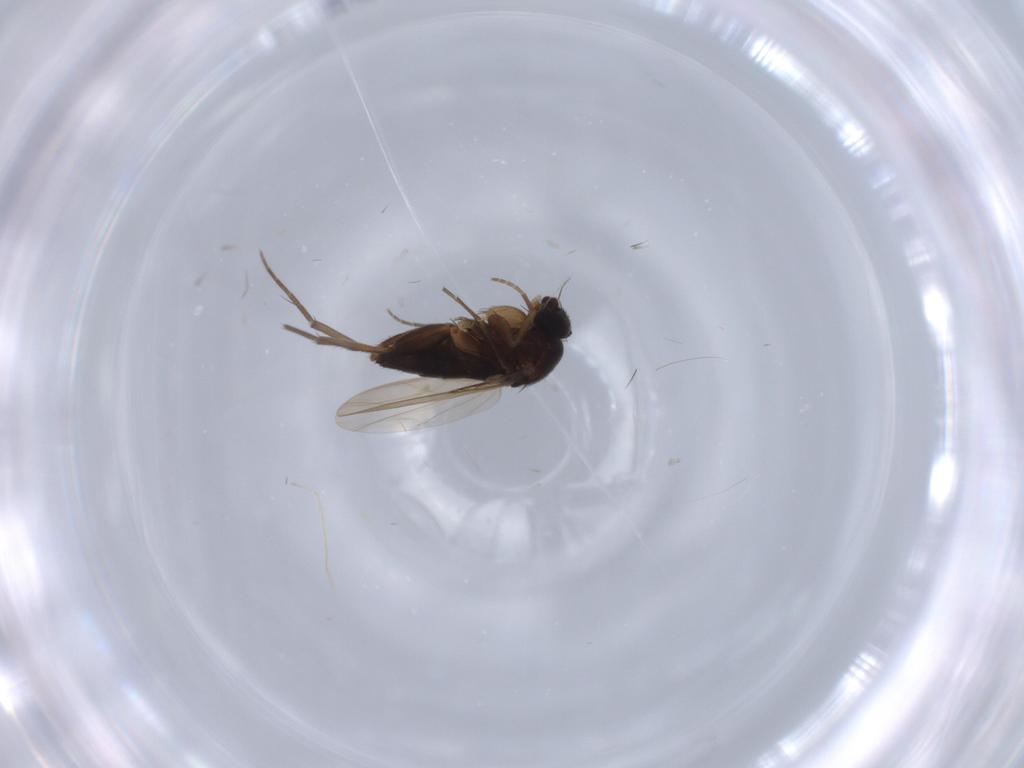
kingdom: Animalia
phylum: Arthropoda
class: Insecta
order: Diptera
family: Phoridae
